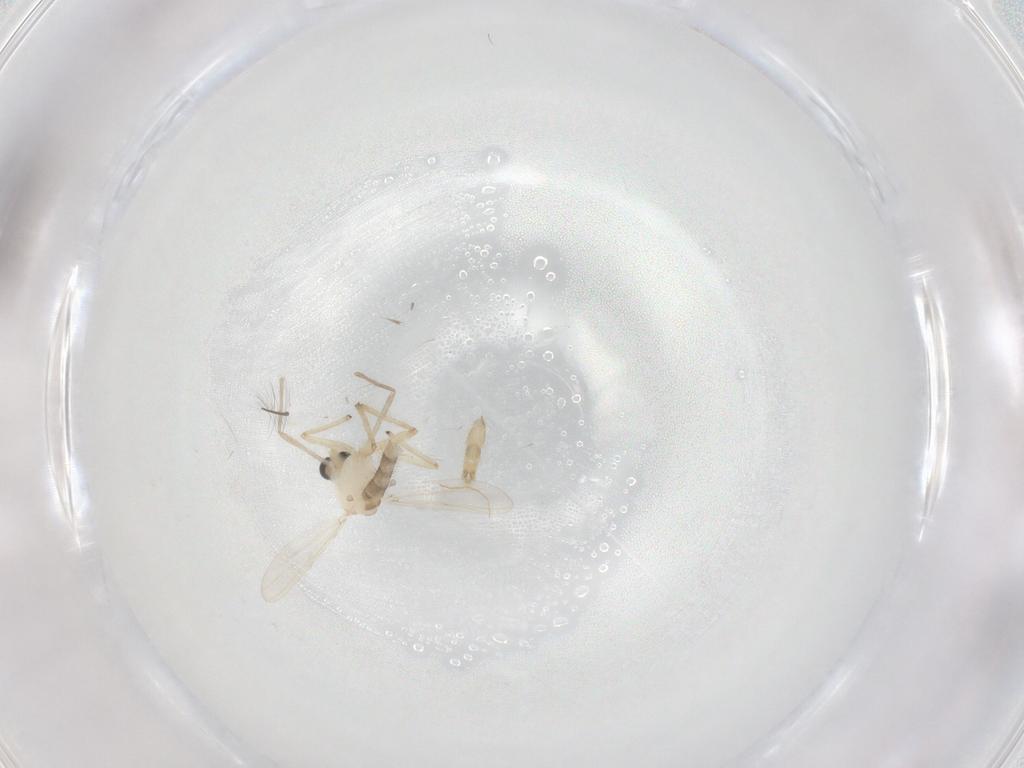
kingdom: Animalia
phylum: Arthropoda
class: Insecta
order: Diptera
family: Chironomidae
